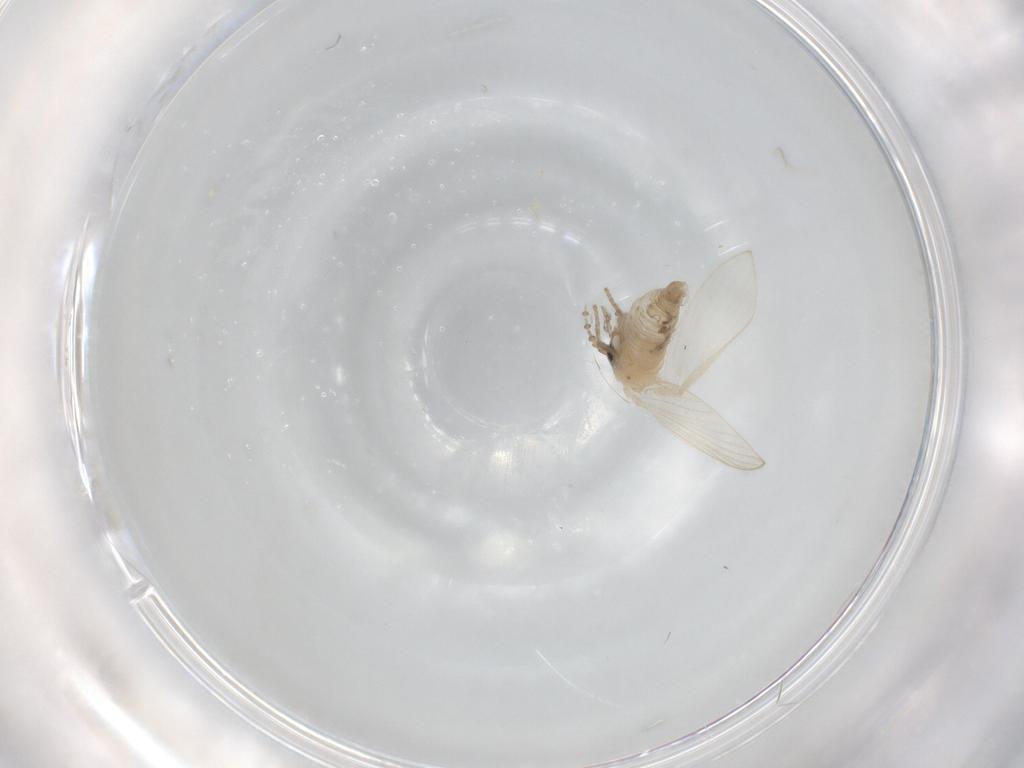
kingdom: Animalia
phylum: Arthropoda
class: Insecta
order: Diptera
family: Psychodidae
